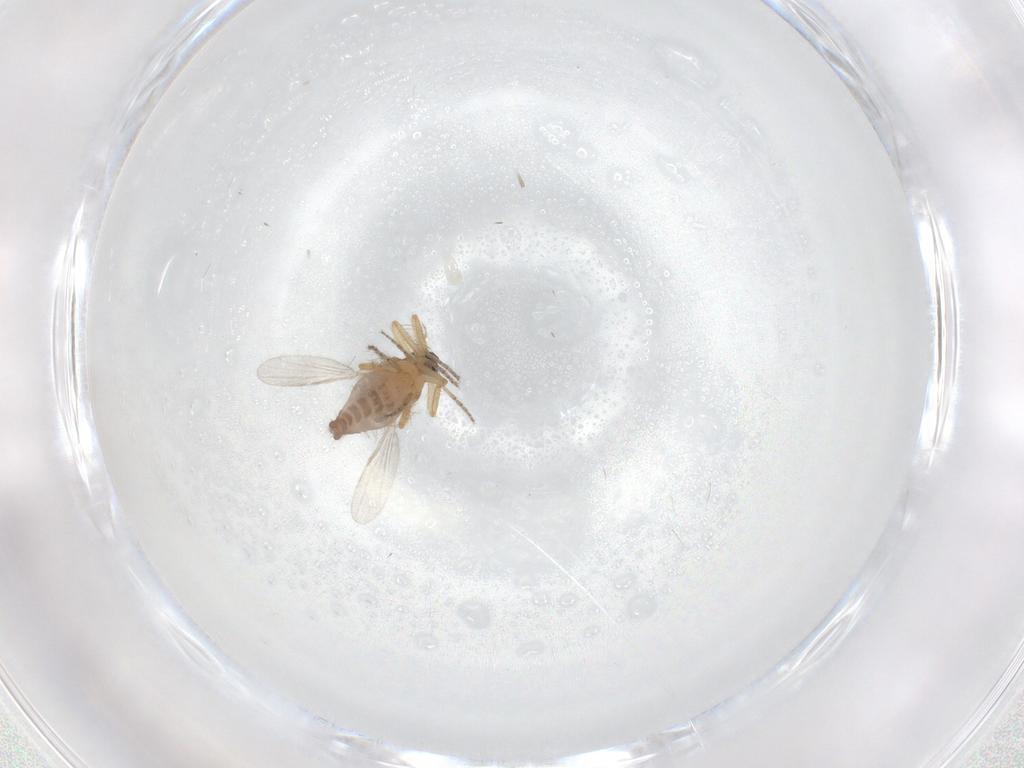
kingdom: Animalia
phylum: Arthropoda
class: Insecta
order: Diptera
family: Ceratopogonidae
